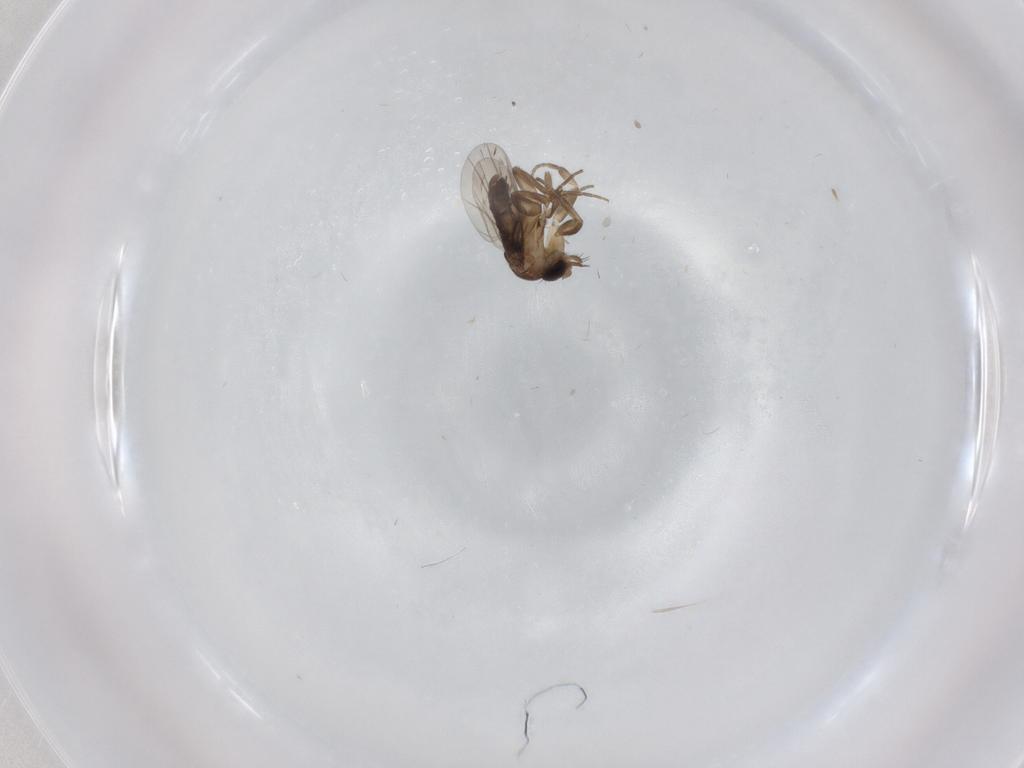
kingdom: Animalia
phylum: Arthropoda
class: Insecta
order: Diptera
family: Phoridae
